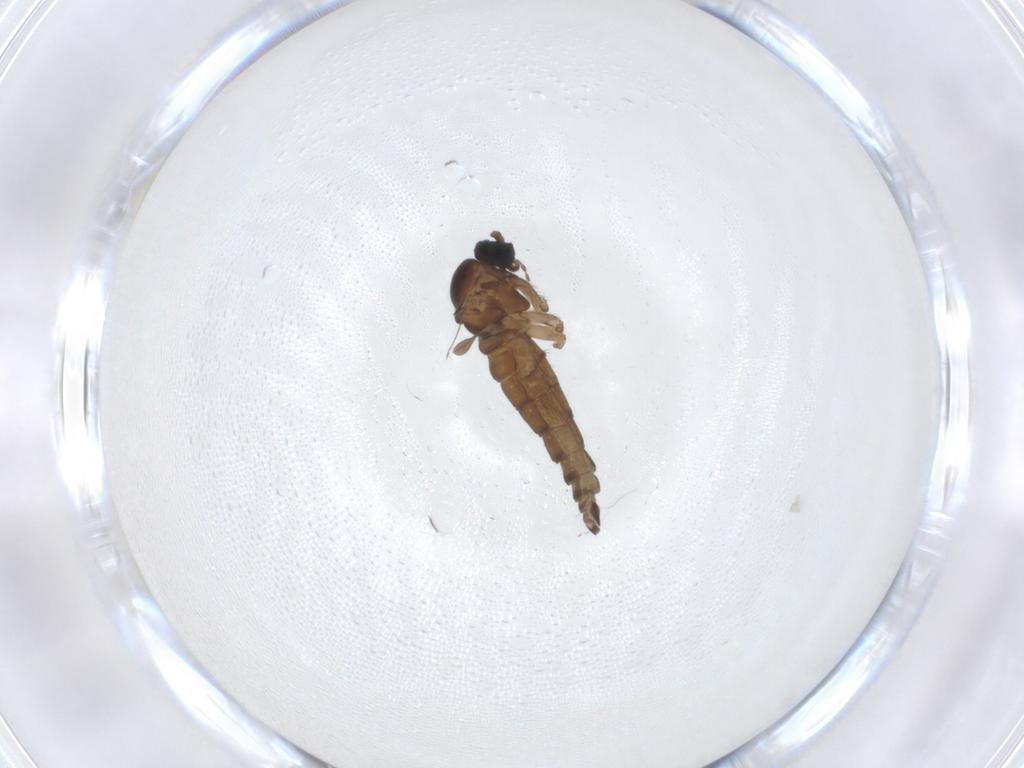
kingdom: Animalia
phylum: Arthropoda
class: Insecta
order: Diptera
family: Sciaridae
